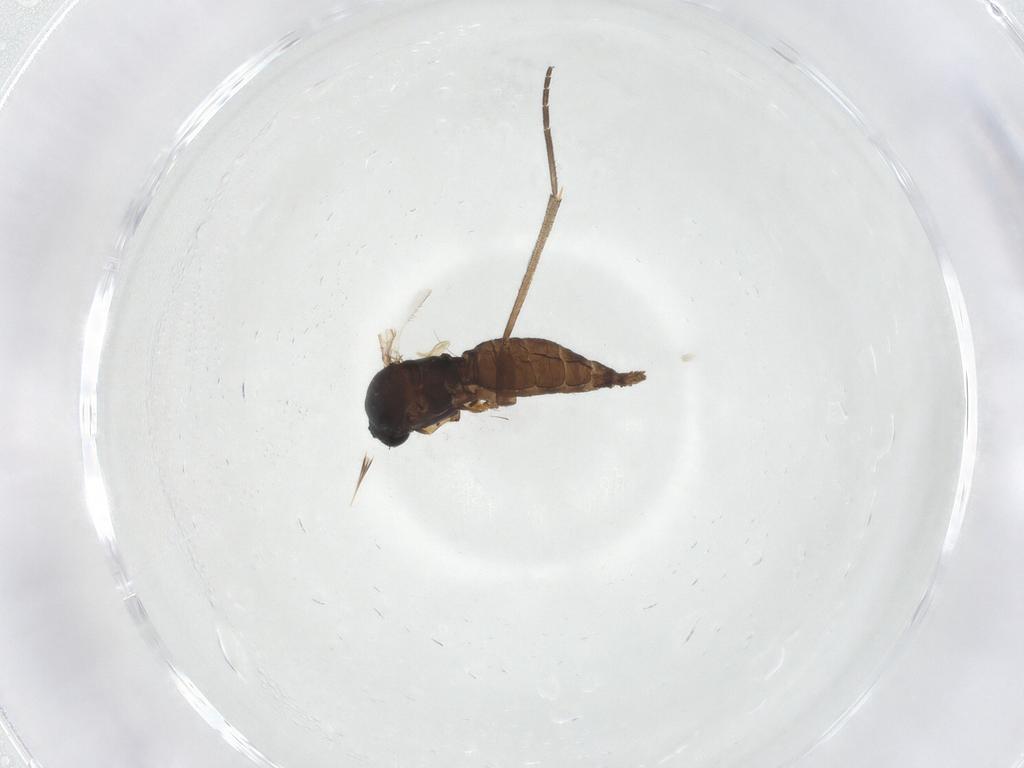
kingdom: Animalia
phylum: Arthropoda
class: Insecta
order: Diptera
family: Sciaridae
